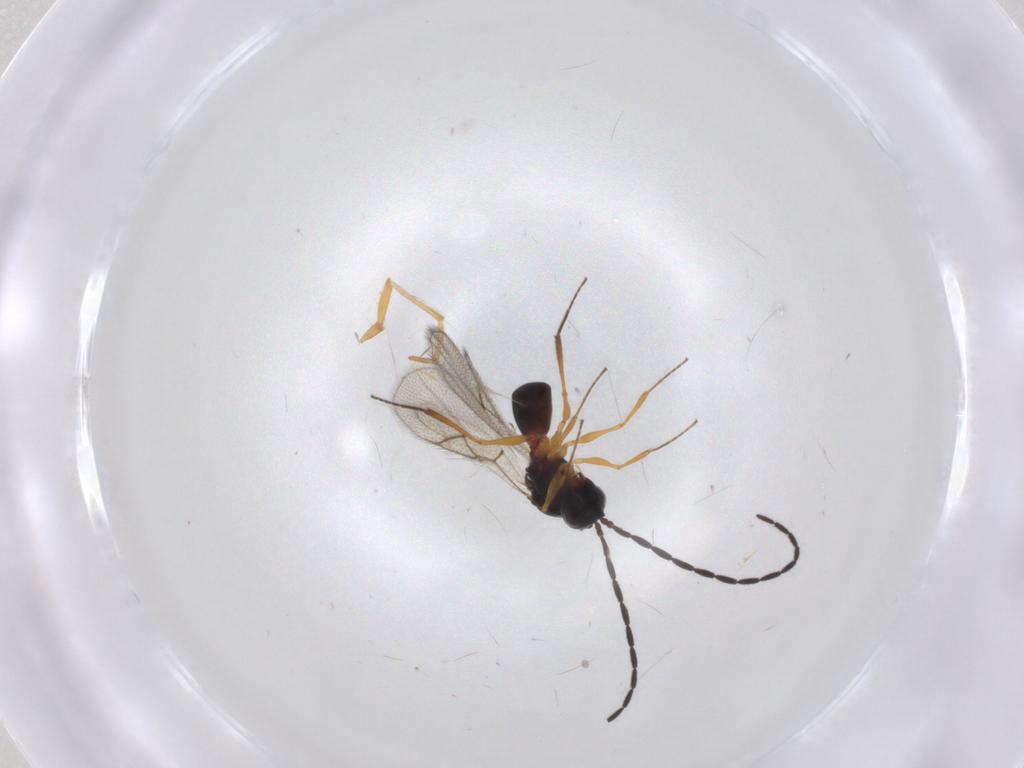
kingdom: Animalia
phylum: Arthropoda
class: Insecta
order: Hymenoptera
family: Pompilidae
